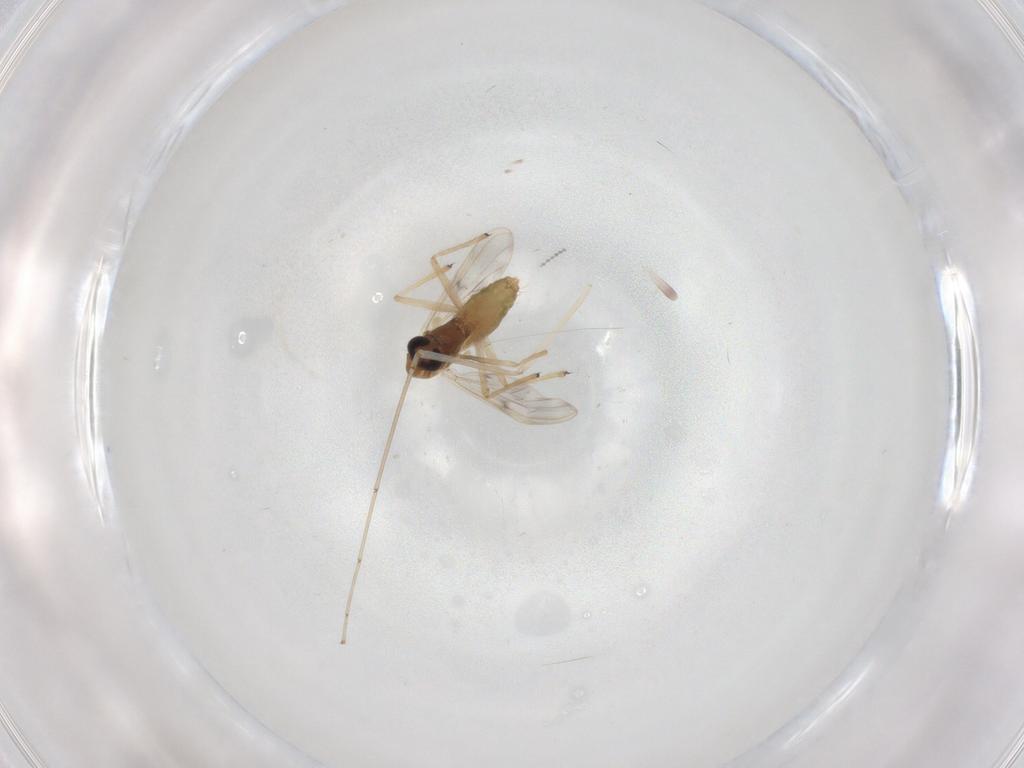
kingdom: Animalia
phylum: Arthropoda
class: Insecta
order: Diptera
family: Cecidomyiidae
